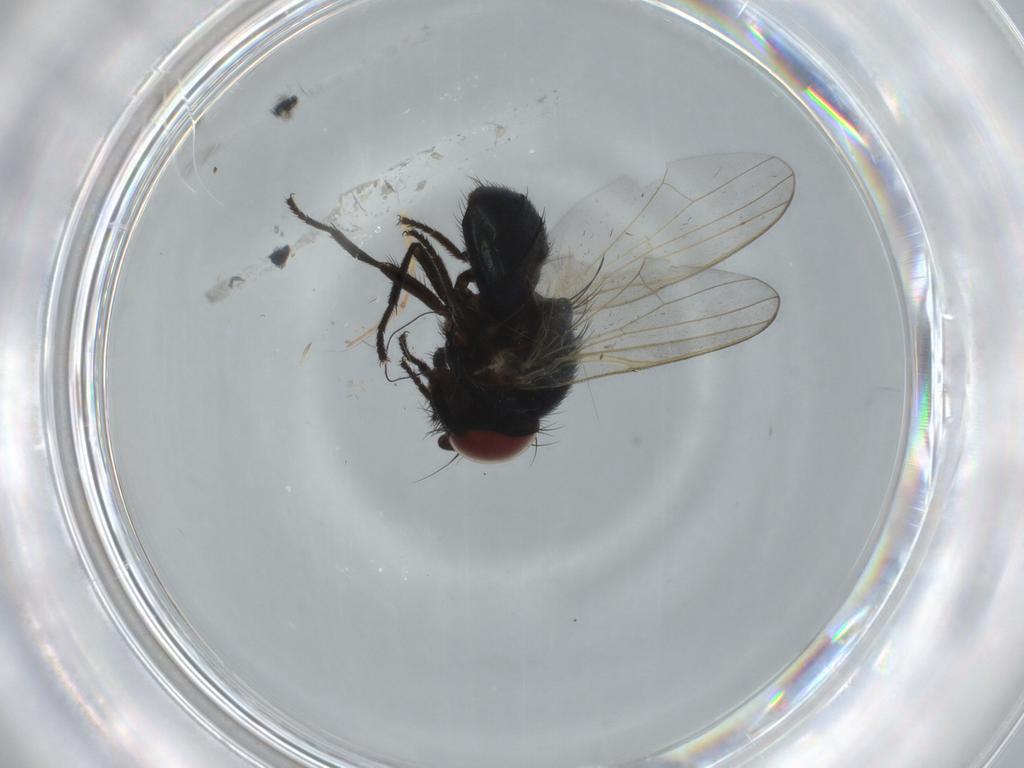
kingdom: Animalia
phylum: Arthropoda
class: Insecta
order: Diptera
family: Lonchaeidae
